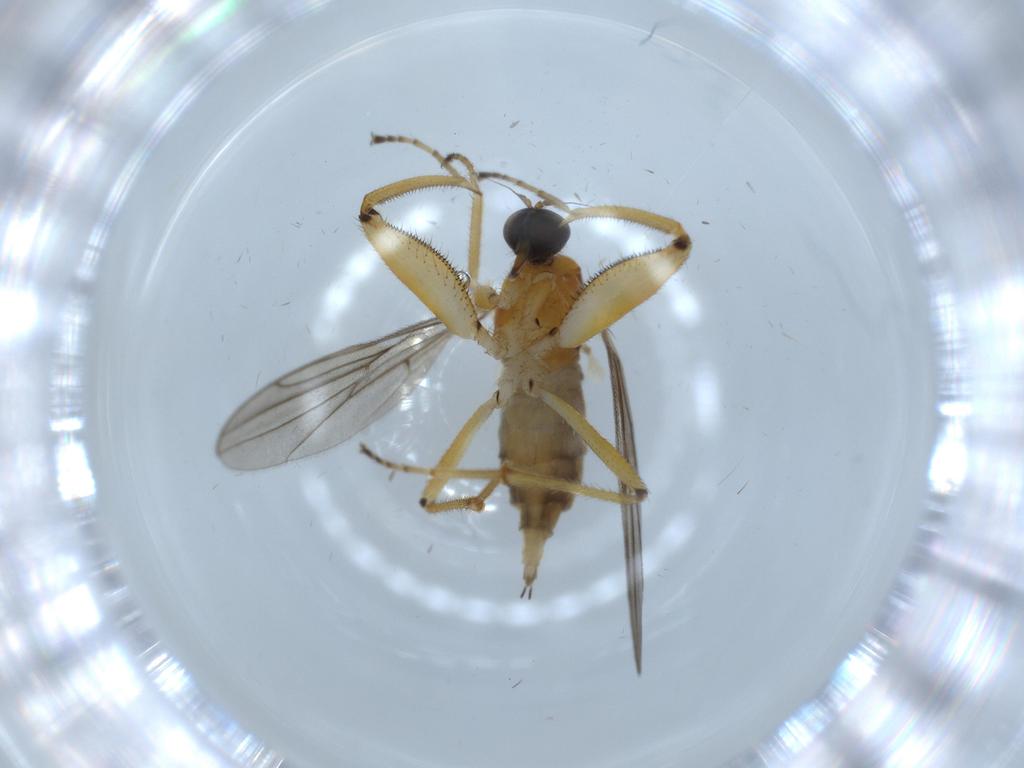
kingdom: Animalia
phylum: Arthropoda
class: Insecta
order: Diptera
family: Phoridae
